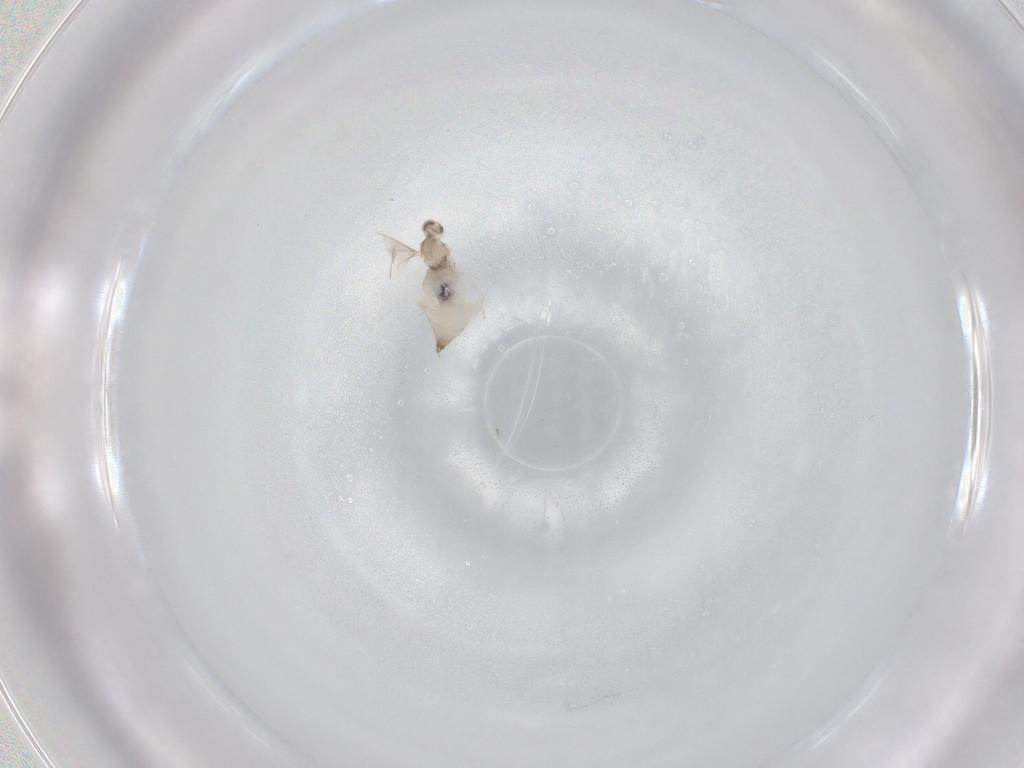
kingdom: Animalia
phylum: Arthropoda
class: Insecta
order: Diptera
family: Cecidomyiidae
